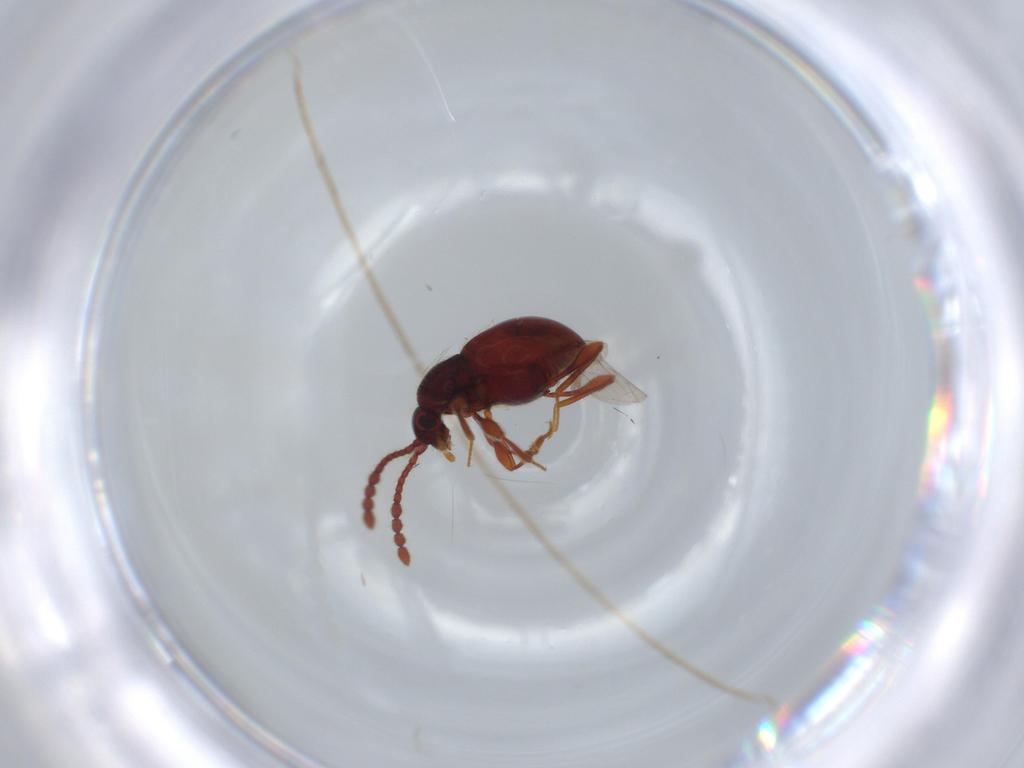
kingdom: Animalia
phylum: Arthropoda
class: Insecta
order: Coleoptera
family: Staphylinidae
